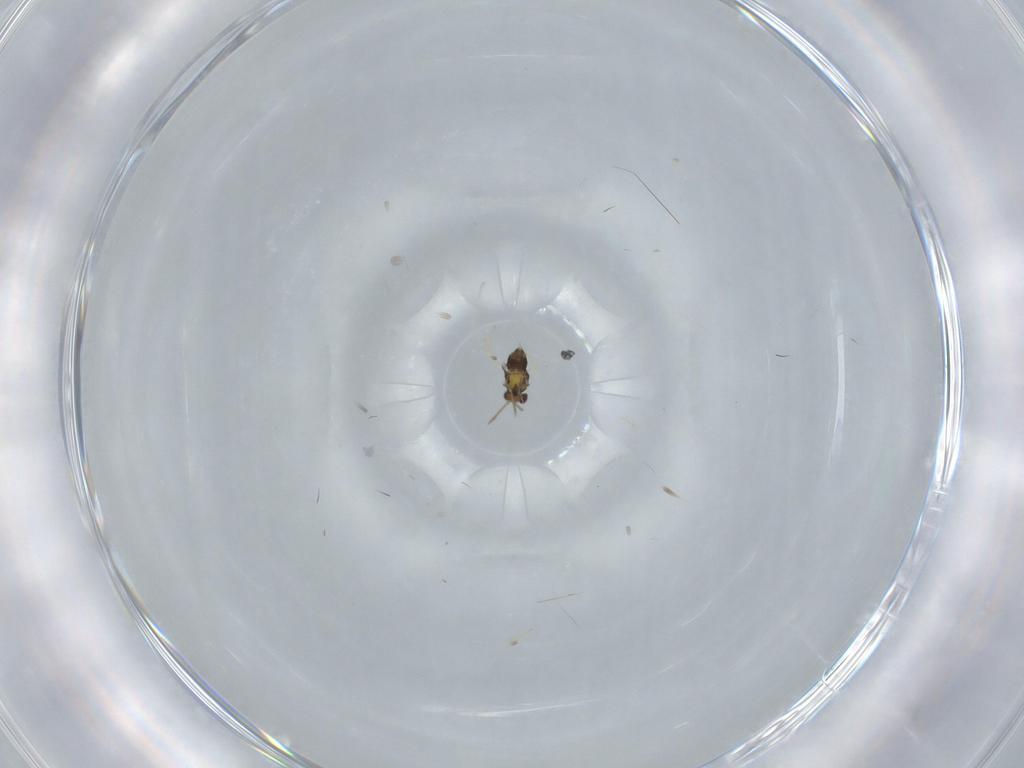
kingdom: Animalia
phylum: Arthropoda
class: Insecta
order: Hymenoptera
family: Aphelinidae
